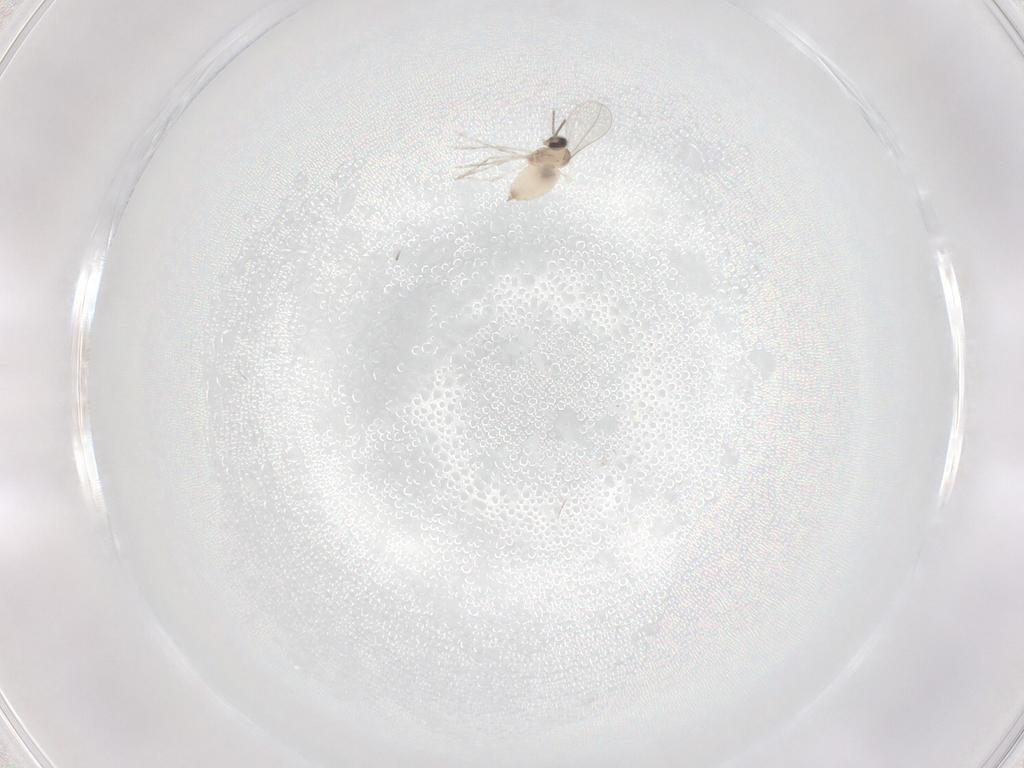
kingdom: Animalia
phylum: Arthropoda
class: Insecta
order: Diptera
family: Cecidomyiidae
